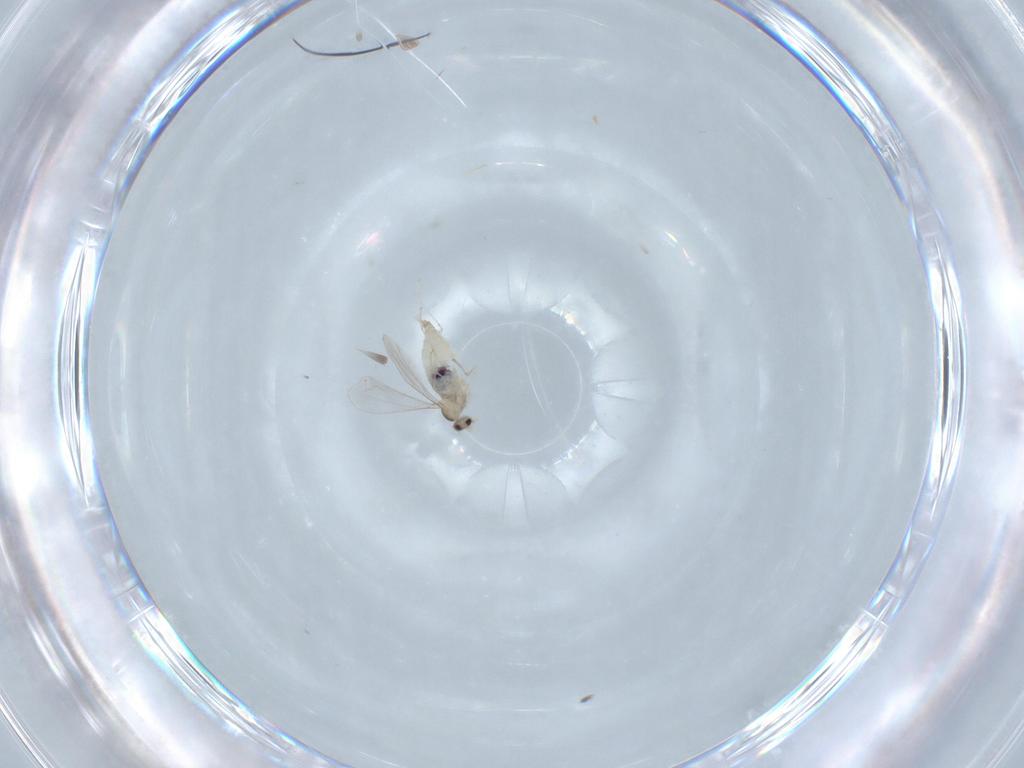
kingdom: Animalia
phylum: Arthropoda
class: Insecta
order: Diptera
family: Cecidomyiidae
